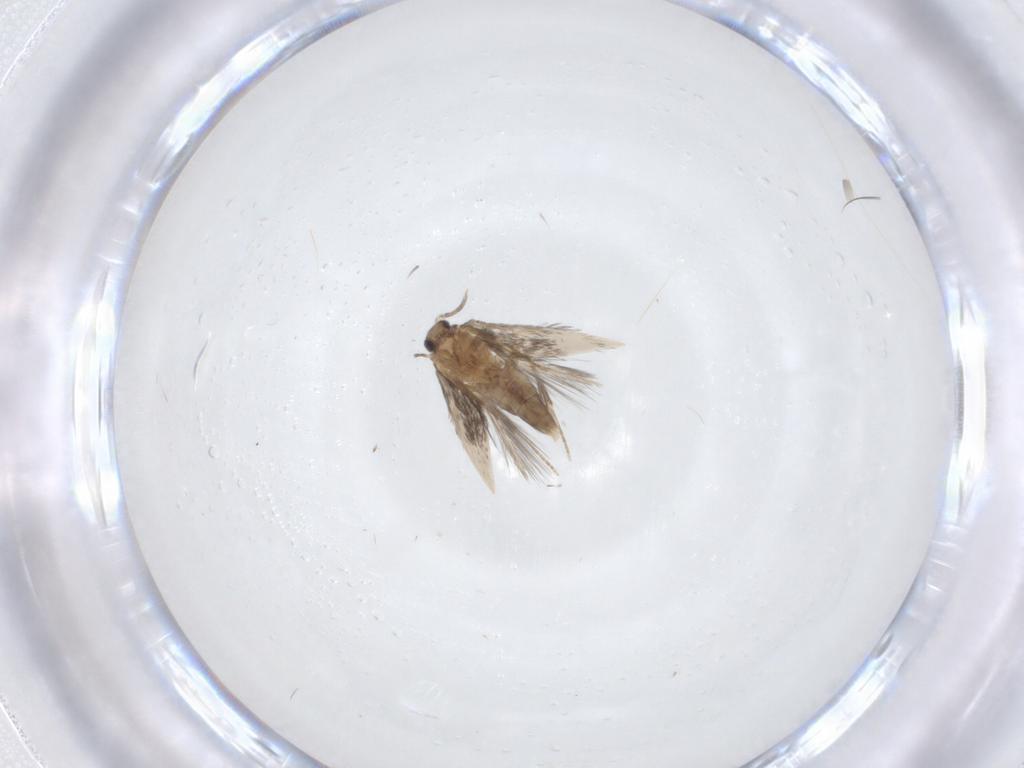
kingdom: Animalia
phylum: Arthropoda
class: Insecta
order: Trichoptera
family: Hydroptilidae
